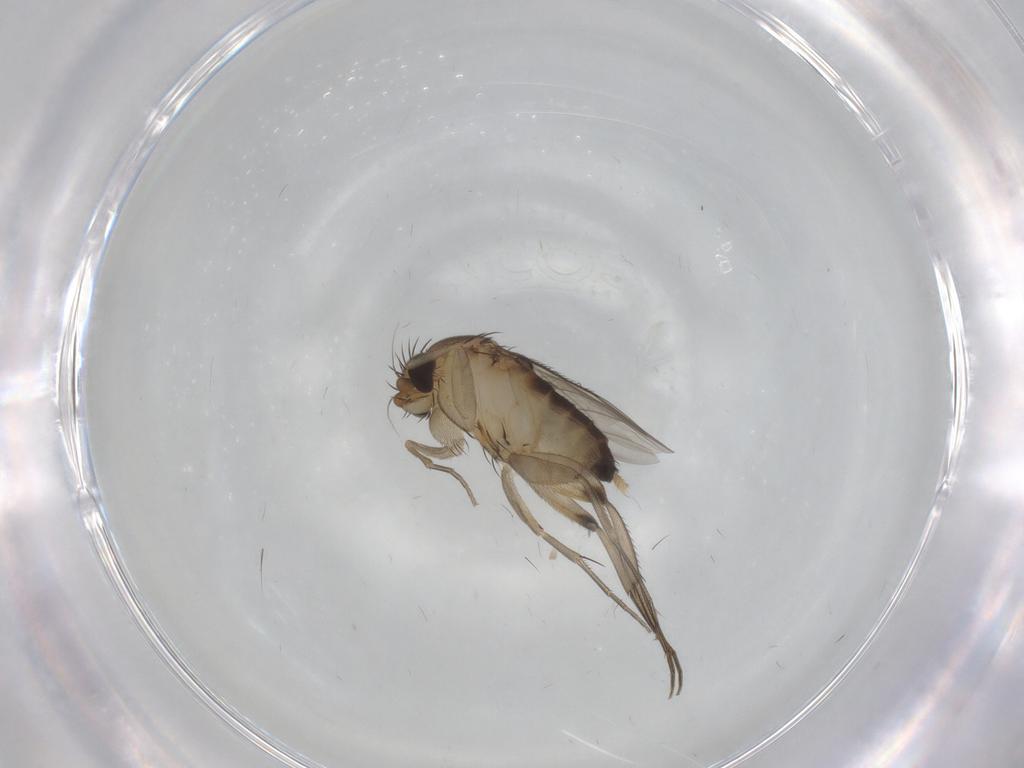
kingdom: Animalia
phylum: Arthropoda
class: Insecta
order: Diptera
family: Phoridae
